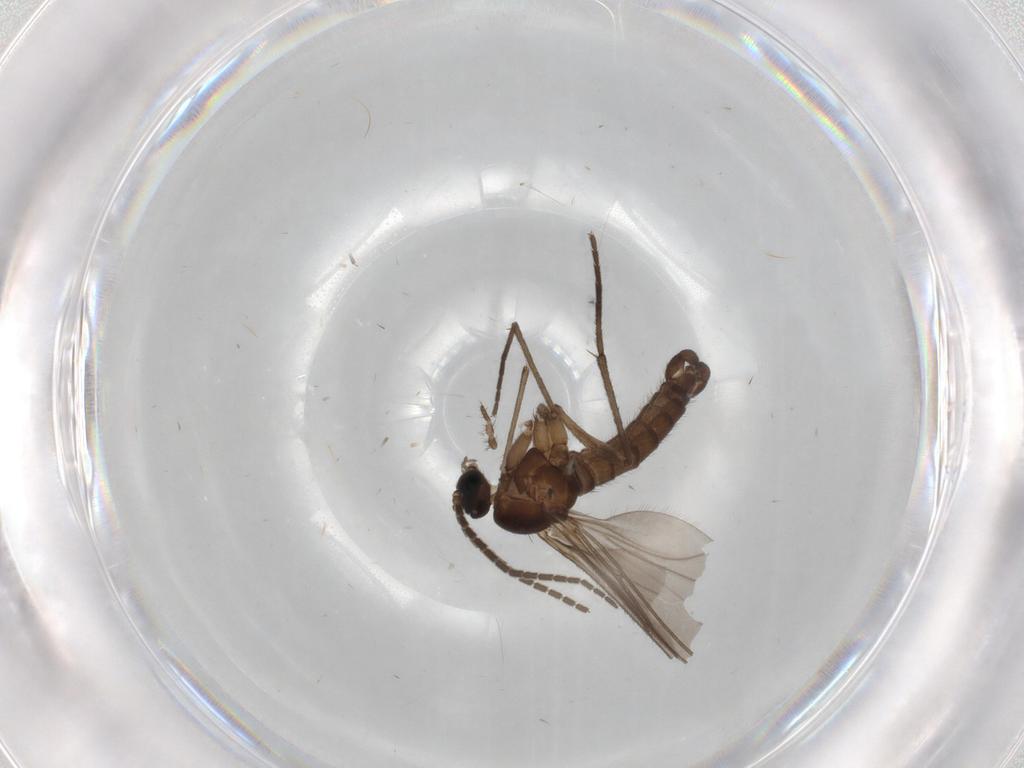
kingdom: Animalia
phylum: Arthropoda
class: Insecta
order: Diptera
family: Sciaridae
